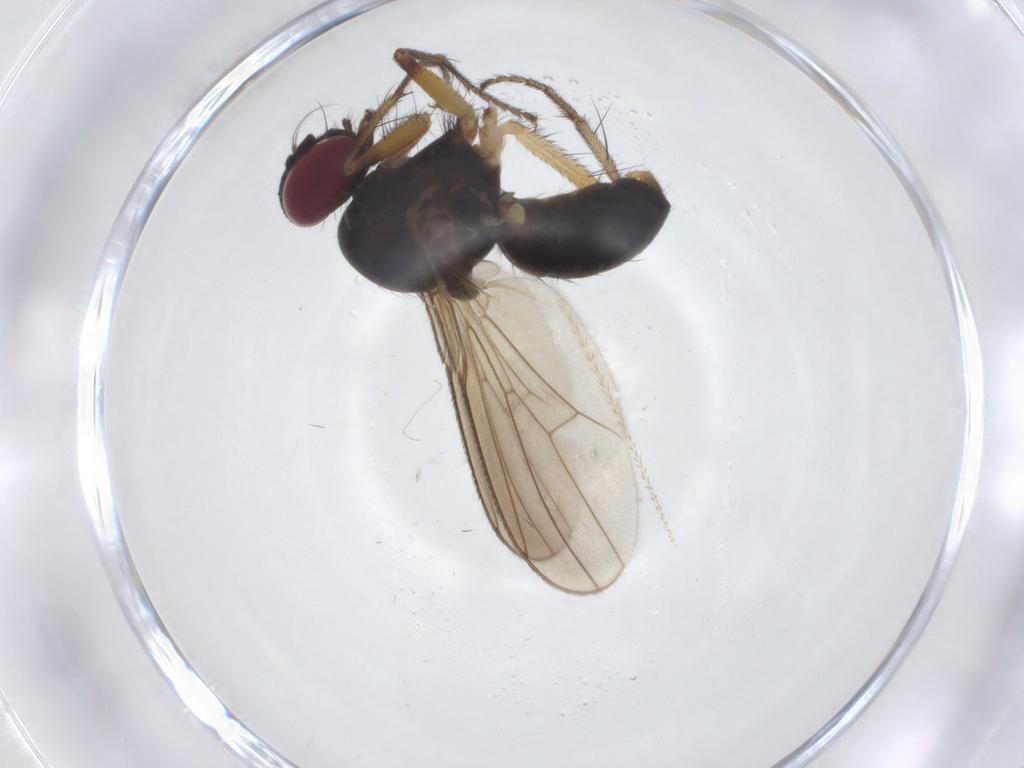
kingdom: Animalia
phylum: Arthropoda
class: Insecta
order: Diptera
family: Anthomyiidae
